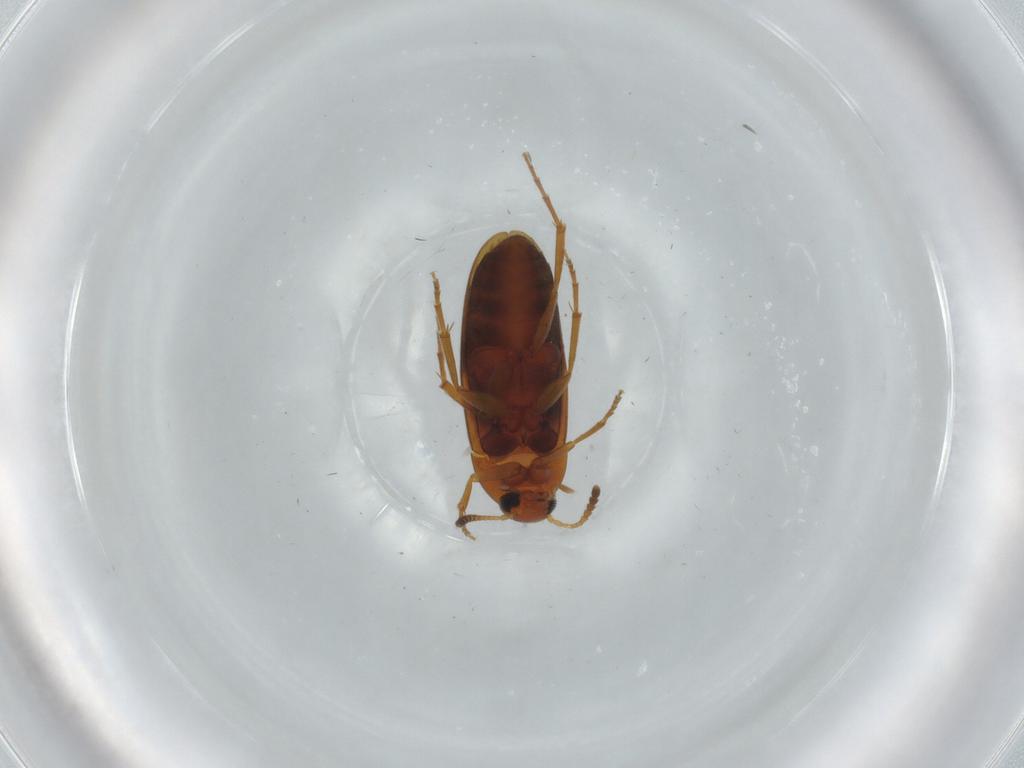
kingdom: Animalia
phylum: Arthropoda
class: Insecta
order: Coleoptera
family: Scraptiidae
